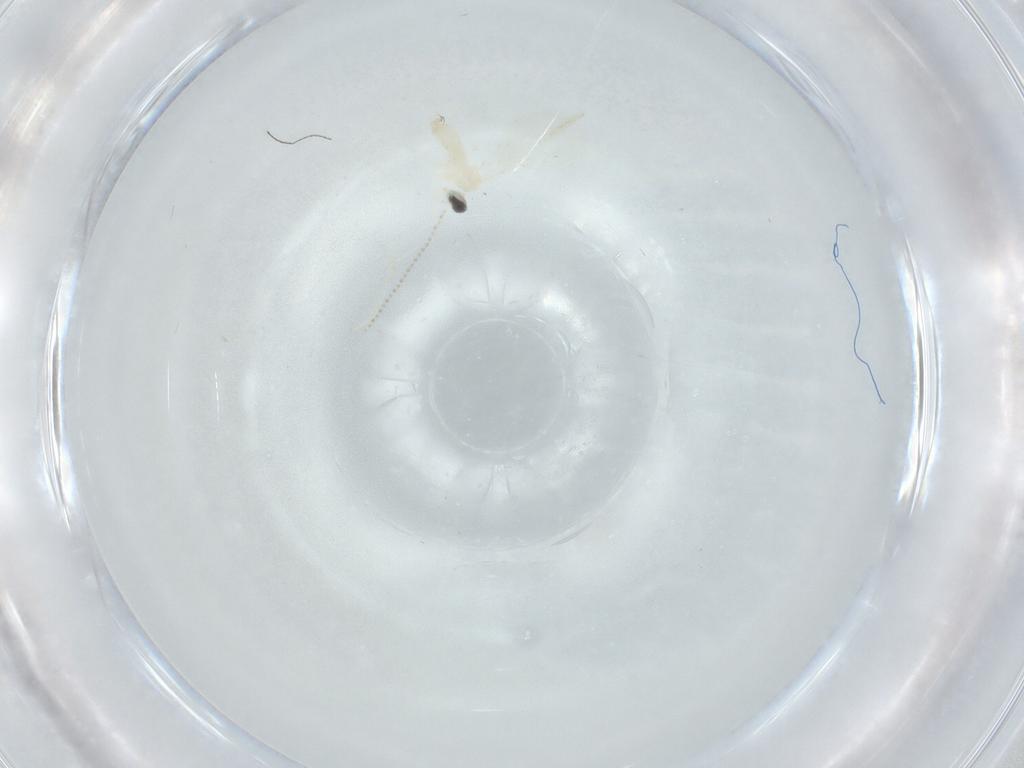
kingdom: Animalia
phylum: Arthropoda
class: Insecta
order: Diptera
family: Cecidomyiidae
